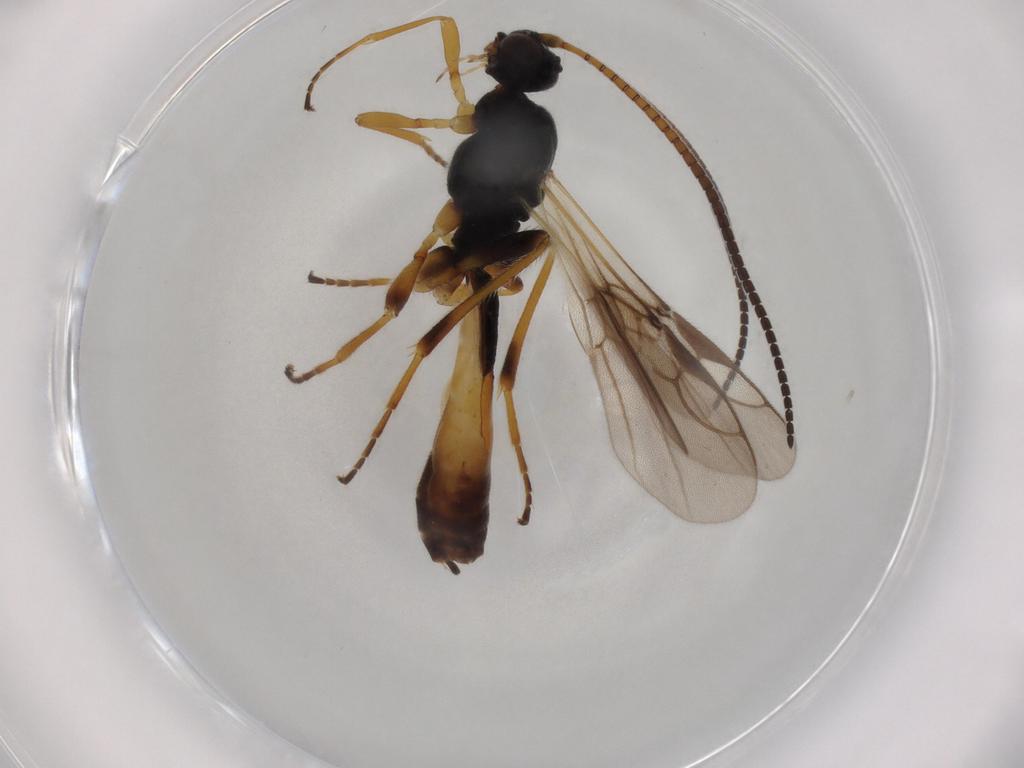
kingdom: Animalia
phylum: Arthropoda
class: Insecta
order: Hymenoptera
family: Braconidae
